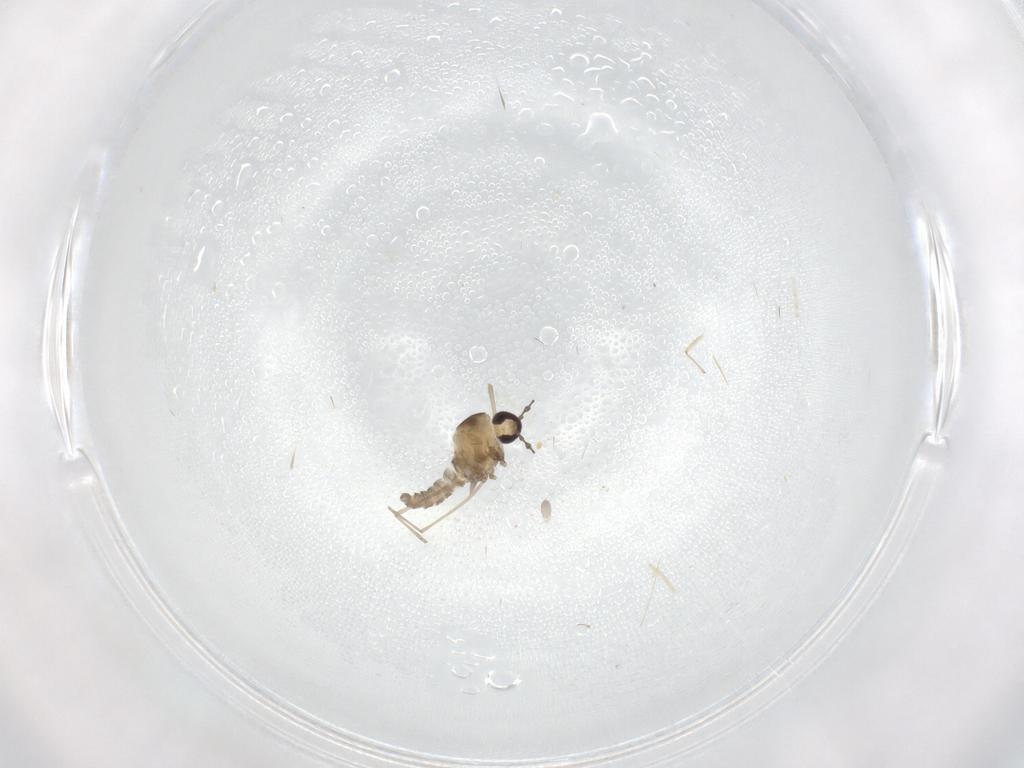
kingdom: Animalia
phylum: Arthropoda
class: Insecta
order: Diptera
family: Cecidomyiidae
